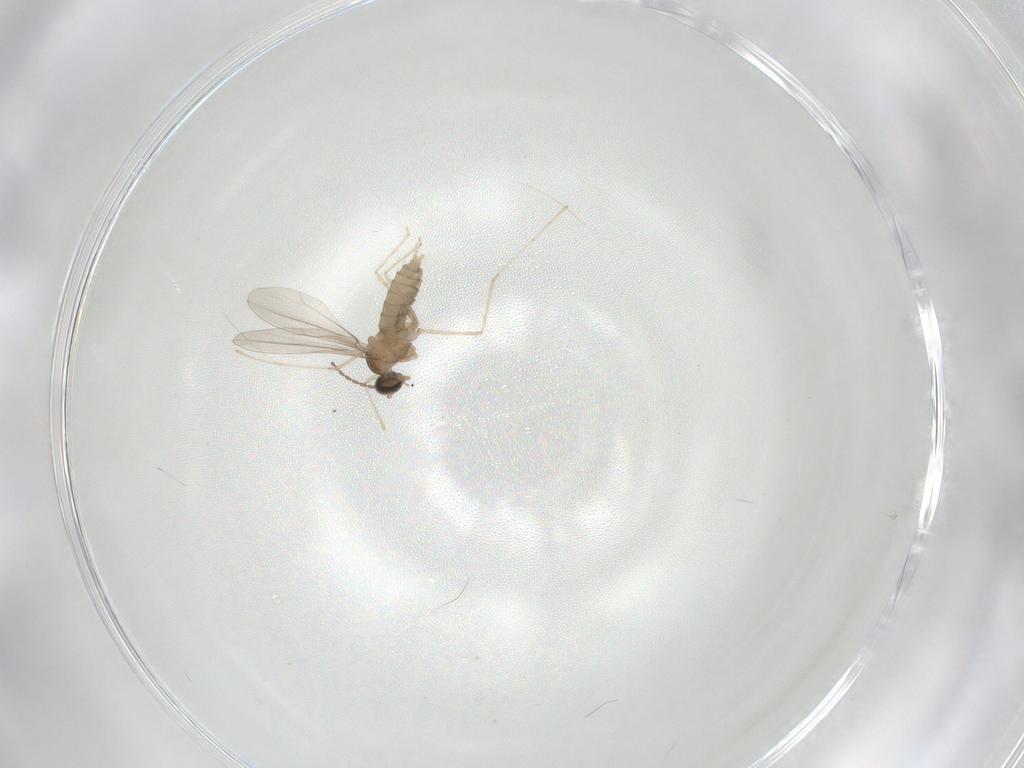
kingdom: Animalia
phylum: Arthropoda
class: Insecta
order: Diptera
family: Cecidomyiidae
